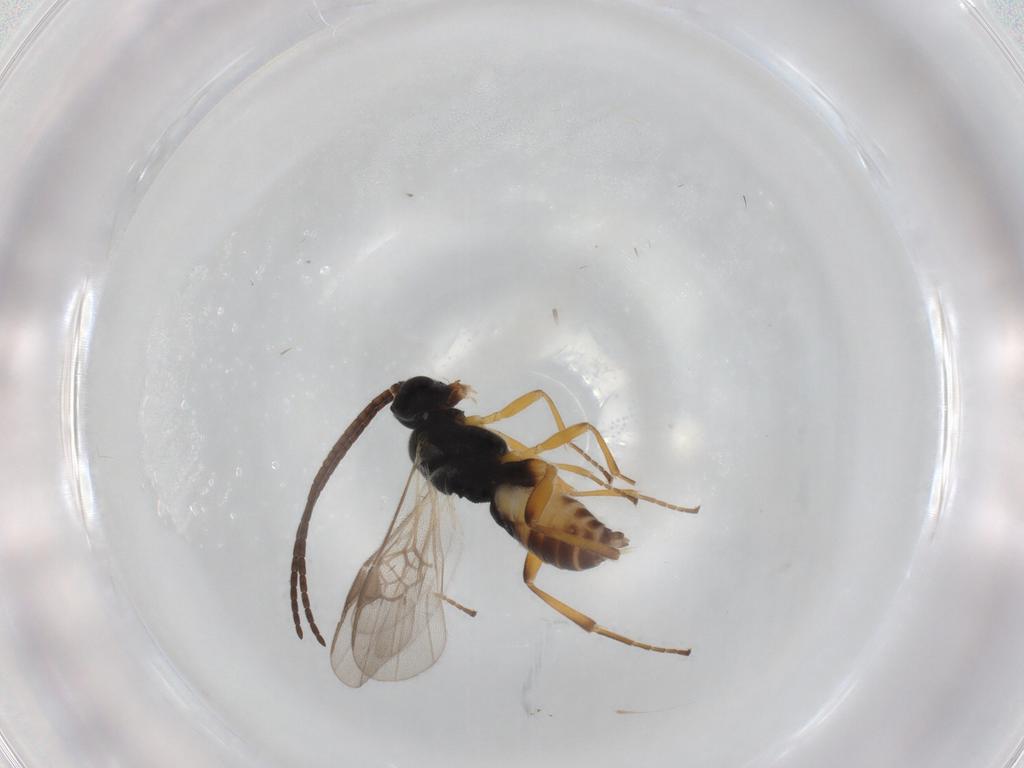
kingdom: Animalia
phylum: Arthropoda
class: Insecta
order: Hymenoptera
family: Braconidae
